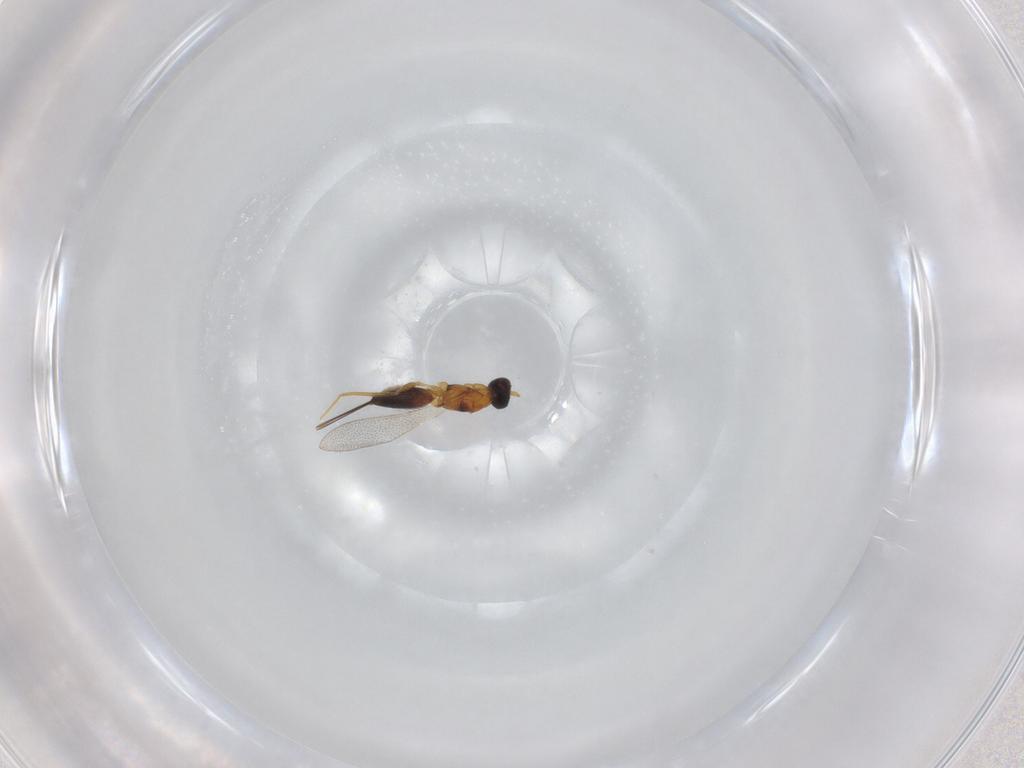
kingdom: Animalia
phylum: Arthropoda
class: Insecta
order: Hymenoptera
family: Mymaridae
